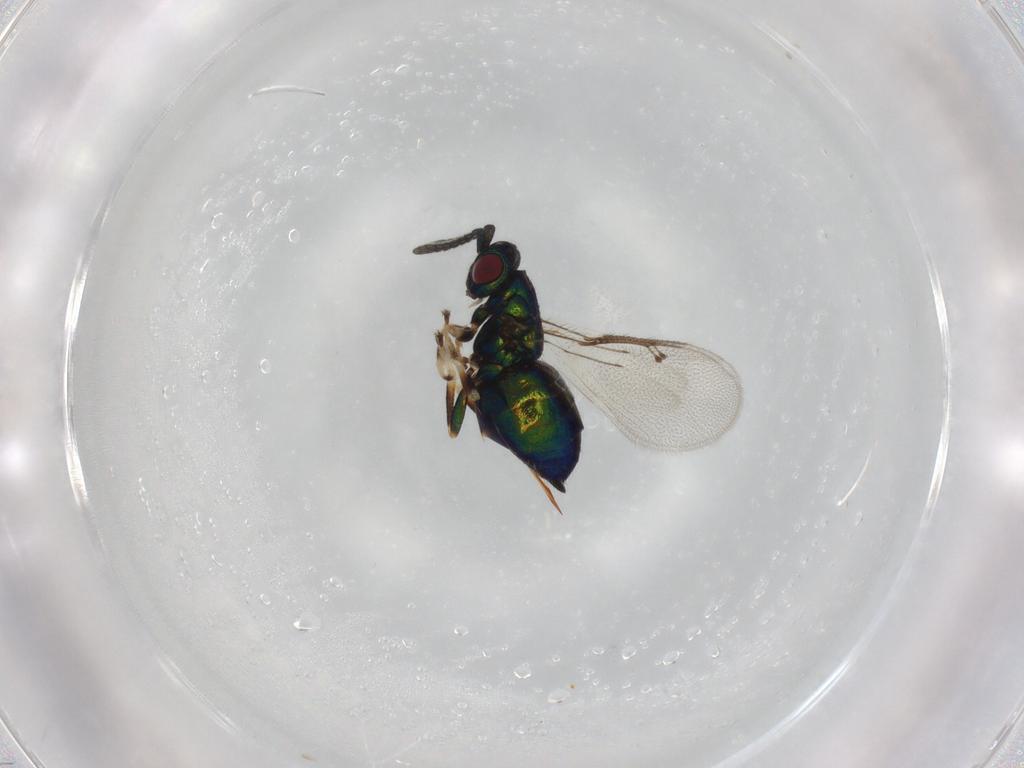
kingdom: Animalia
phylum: Arthropoda
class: Insecta
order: Hymenoptera
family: Pteromalidae
